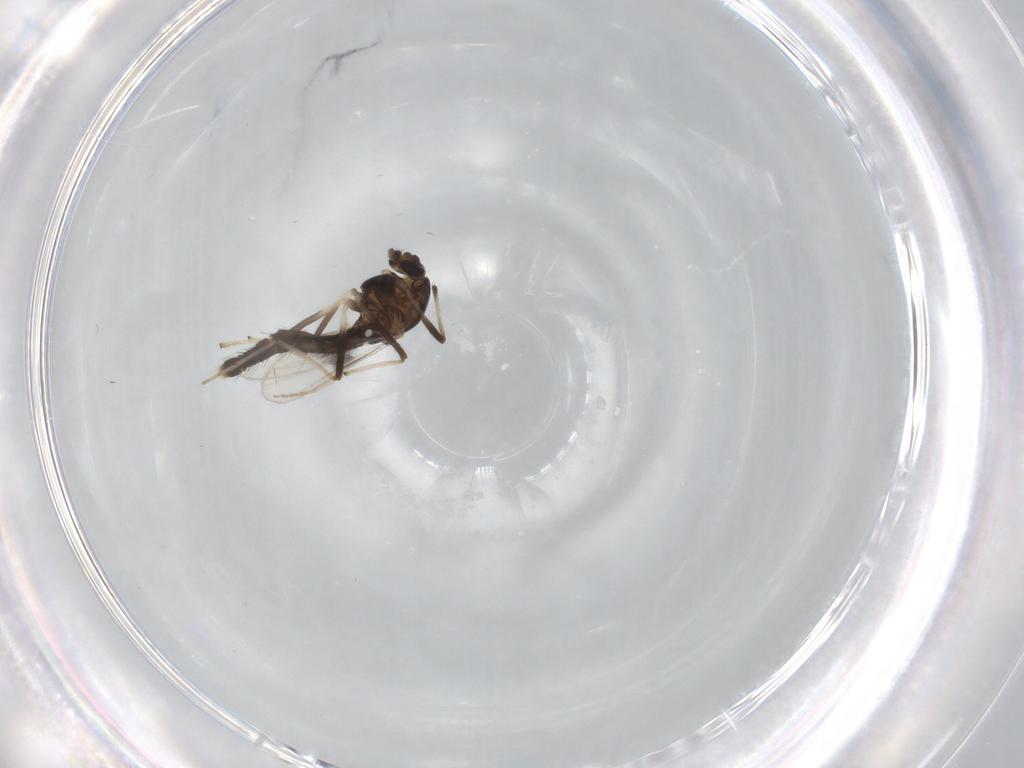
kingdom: Animalia
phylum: Arthropoda
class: Insecta
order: Diptera
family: Chironomidae
